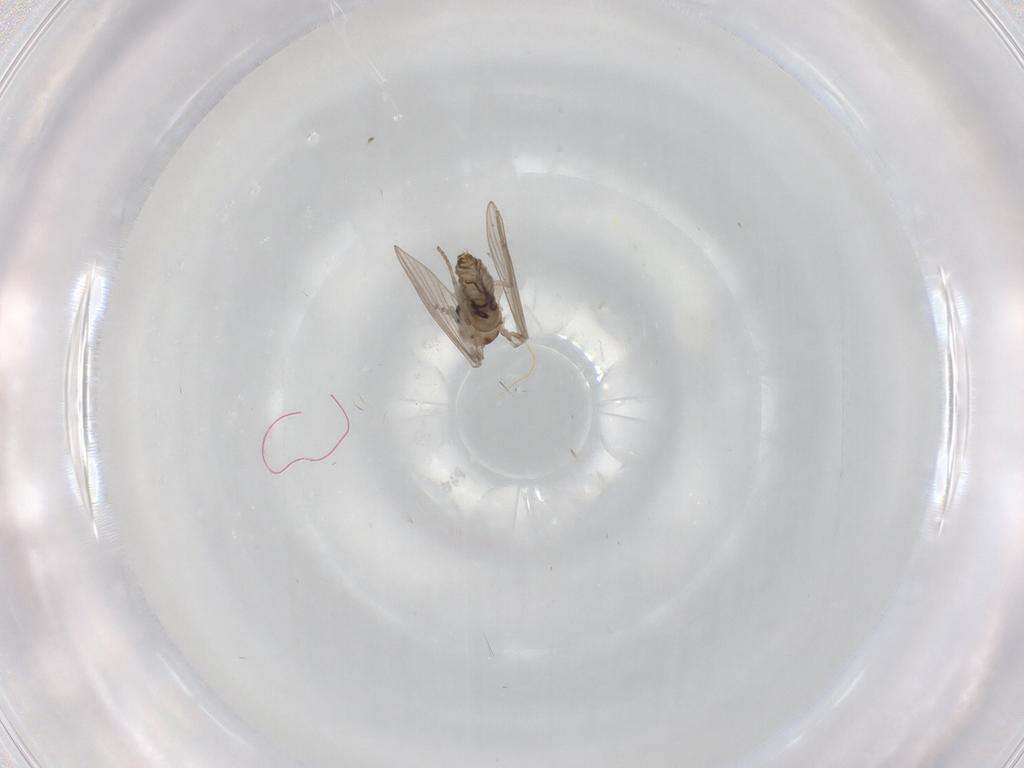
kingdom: Animalia
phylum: Arthropoda
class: Insecta
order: Diptera
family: Psychodidae
